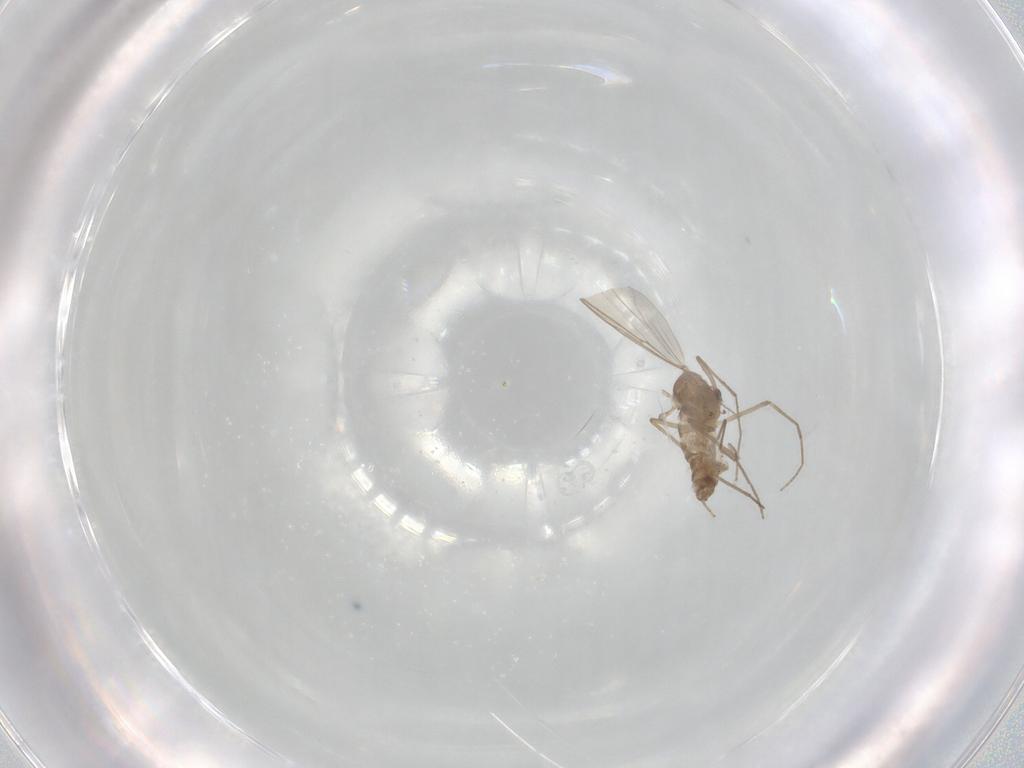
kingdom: Animalia
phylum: Arthropoda
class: Insecta
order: Diptera
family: Chironomidae
